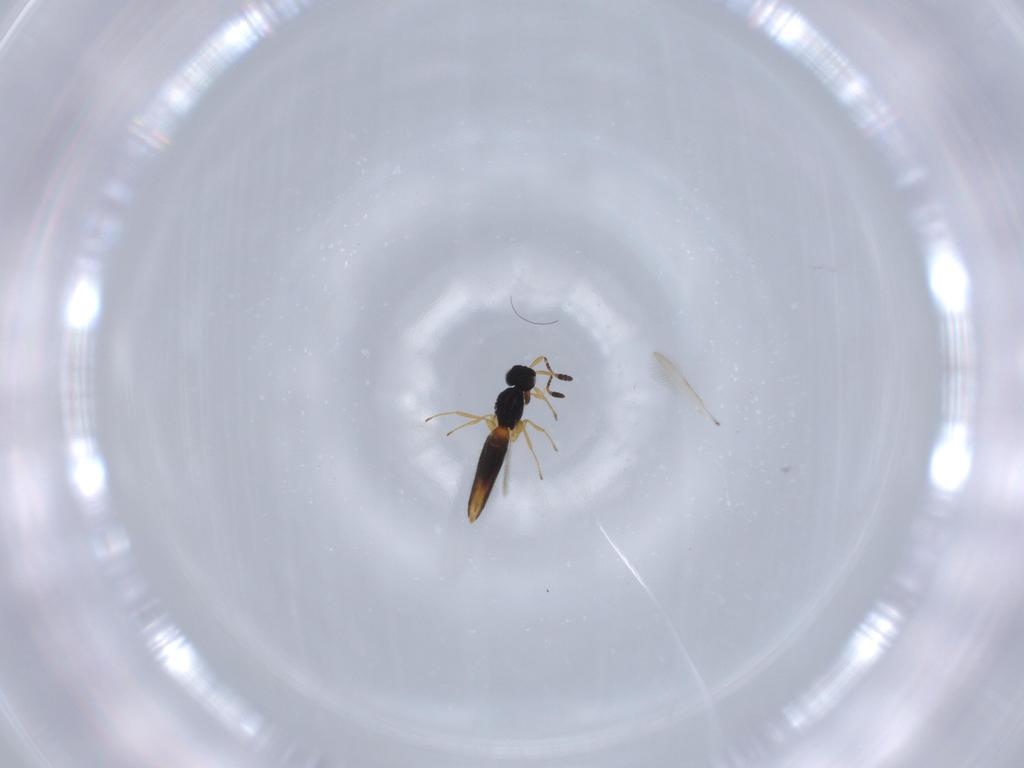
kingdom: Animalia
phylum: Arthropoda
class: Insecta
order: Hymenoptera
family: Scelionidae
